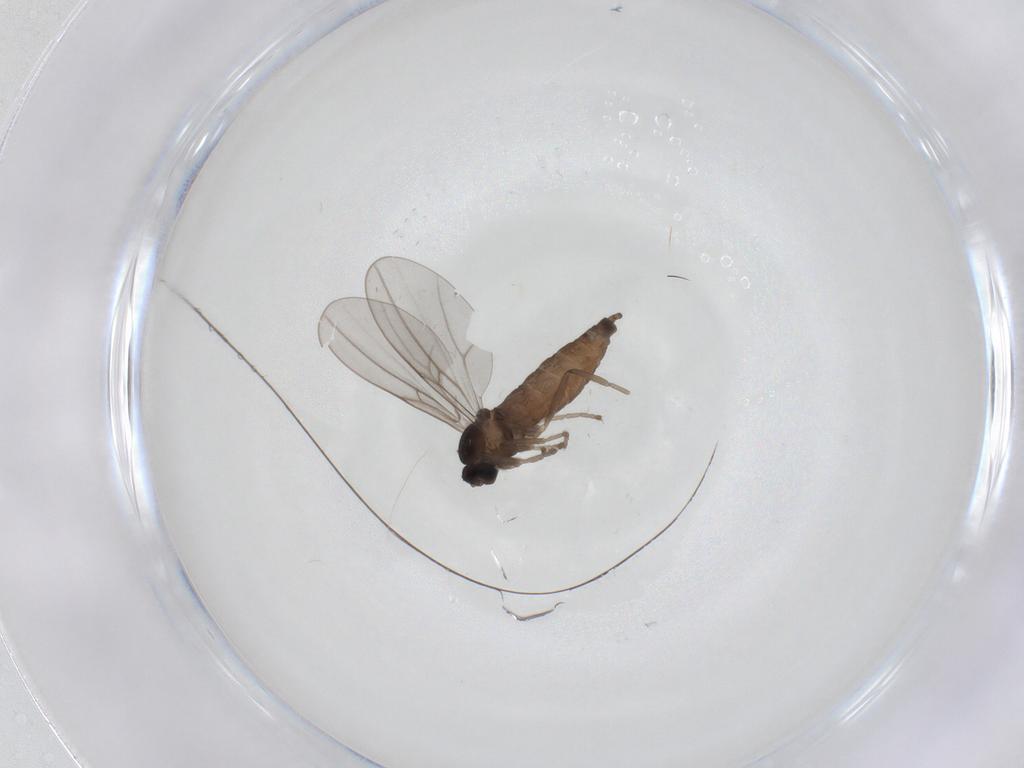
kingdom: Animalia
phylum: Arthropoda
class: Insecta
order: Diptera
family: Cecidomyiidae
